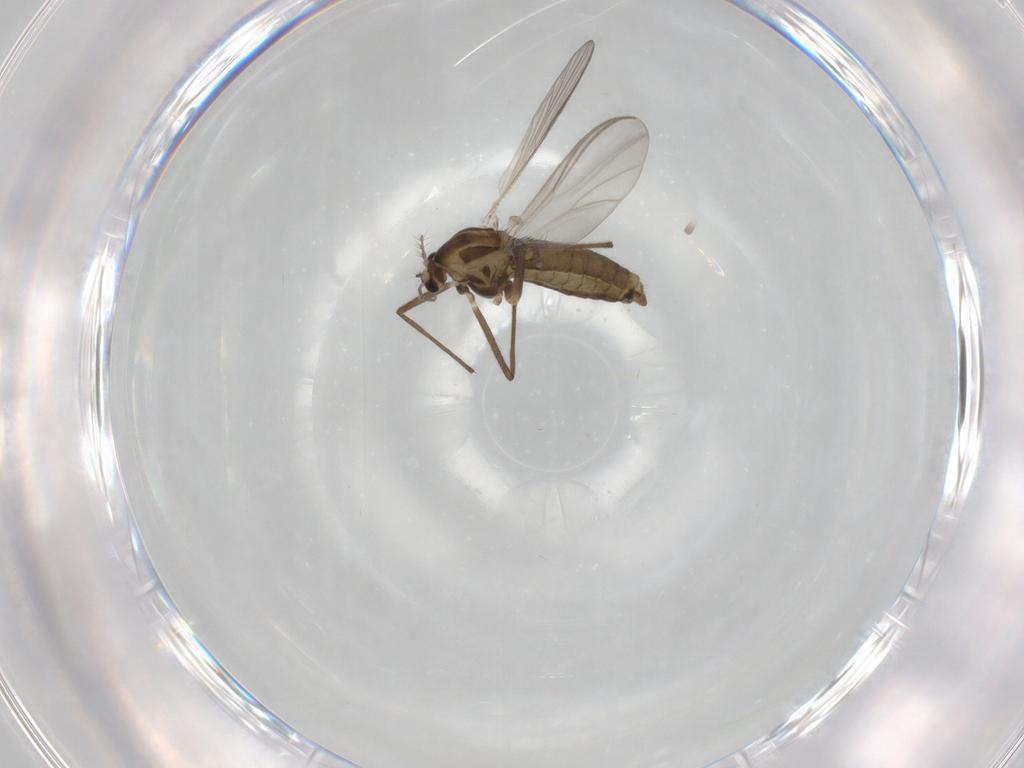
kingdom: Animalia
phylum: Arthropoda
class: Insecta
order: Diptera
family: Chironomidae
